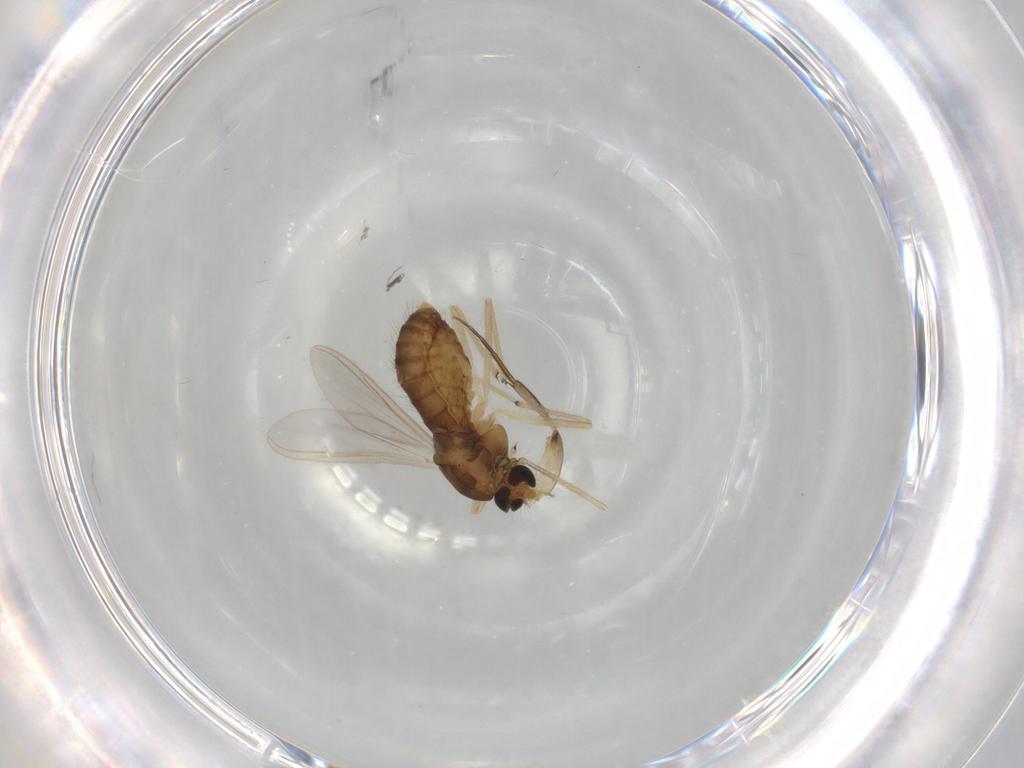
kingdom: Animalia
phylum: Arthropoda
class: Insecta
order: Diptera
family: Chironomidae
